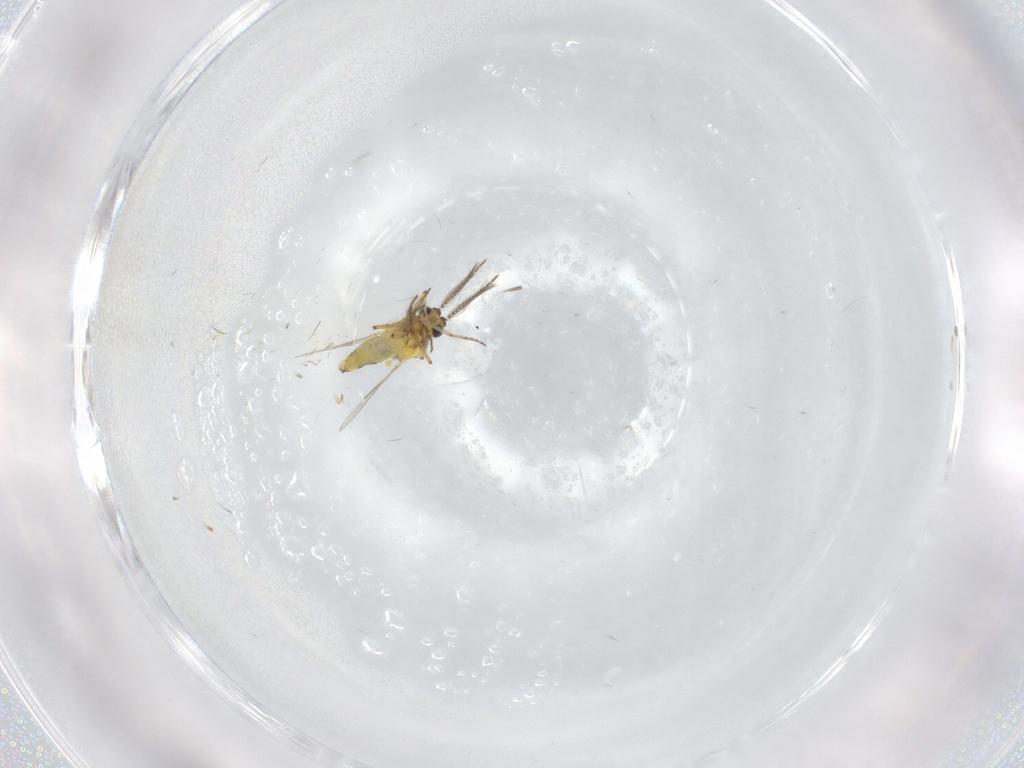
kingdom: Animalia
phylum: Arthropoda
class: Insecta
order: Diptera
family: Ceratopogonidae
